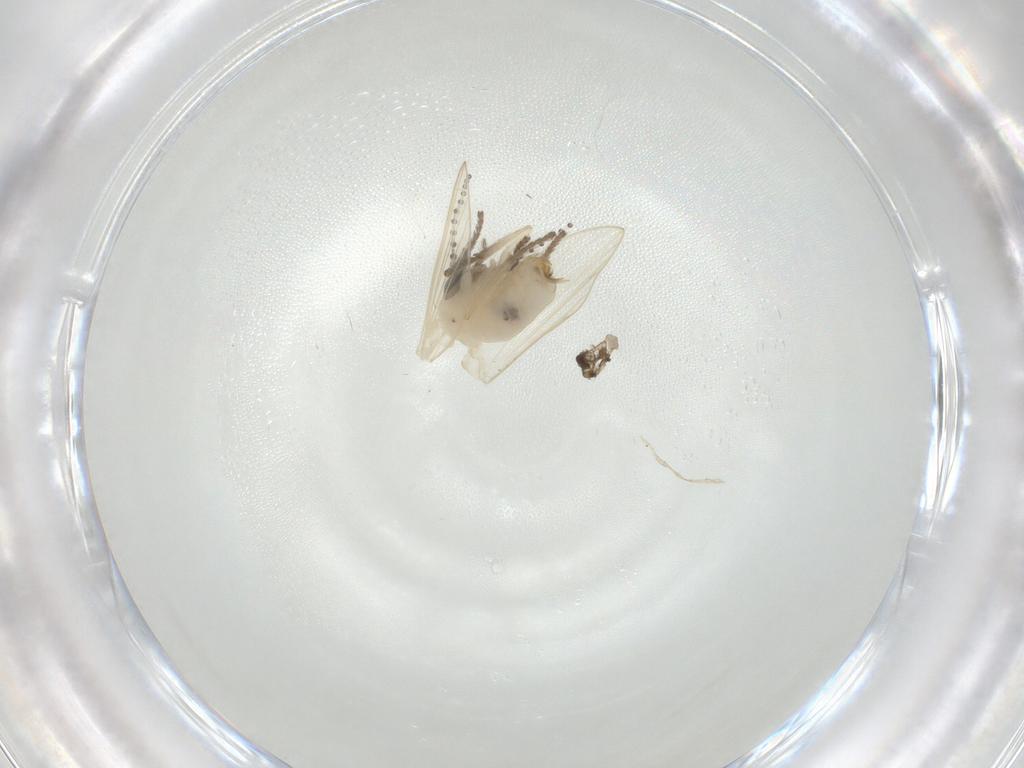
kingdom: Animalia
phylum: Arthropoda
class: Insecta
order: Diptera
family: Psychodidae
